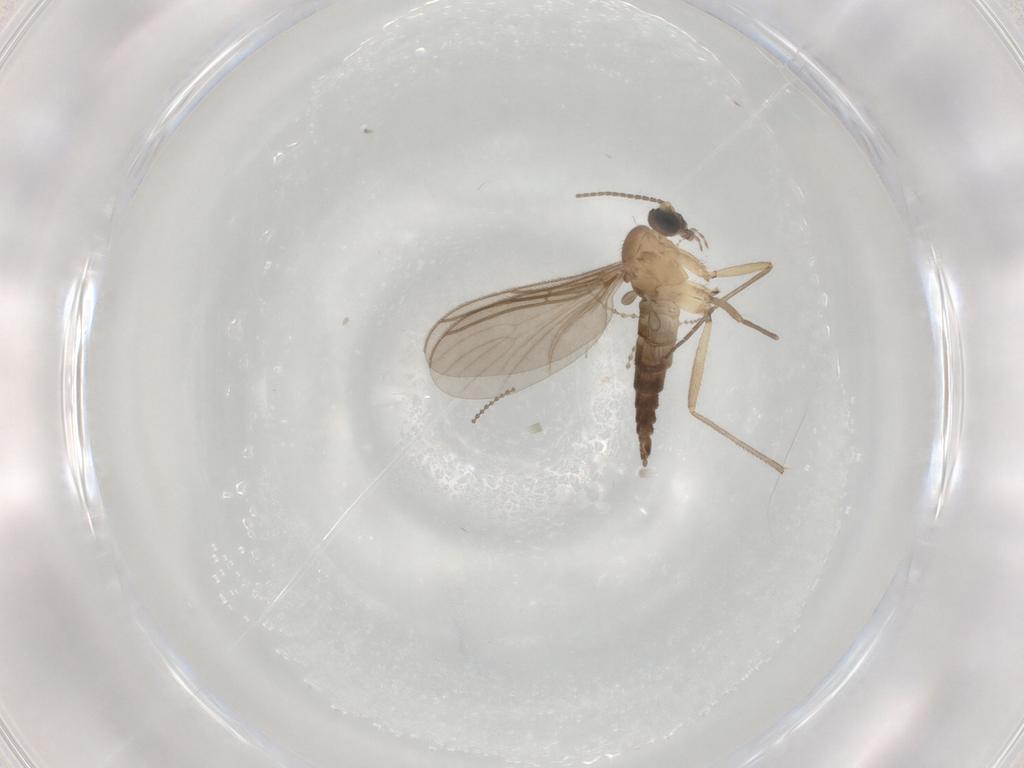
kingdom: Animalia
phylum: Arthropoda
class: Insecta
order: Diptera
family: Sciaridae
